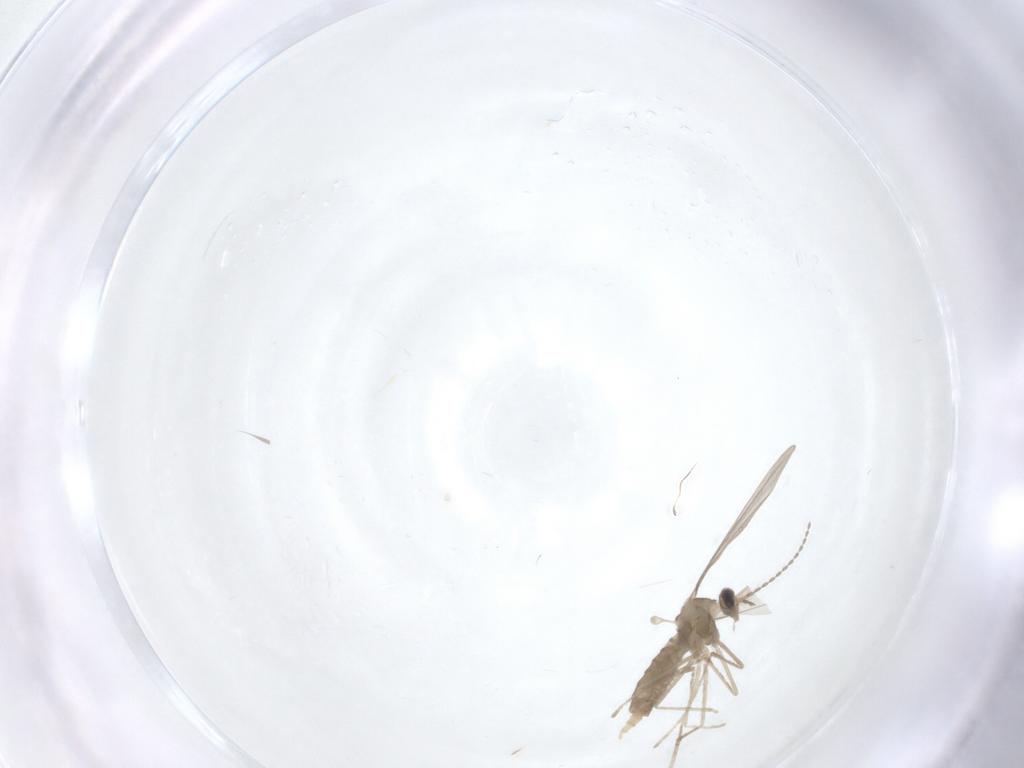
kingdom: Animalia
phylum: Arthropoda
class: Insecta
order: Diptera
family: Cecidomyiidae
